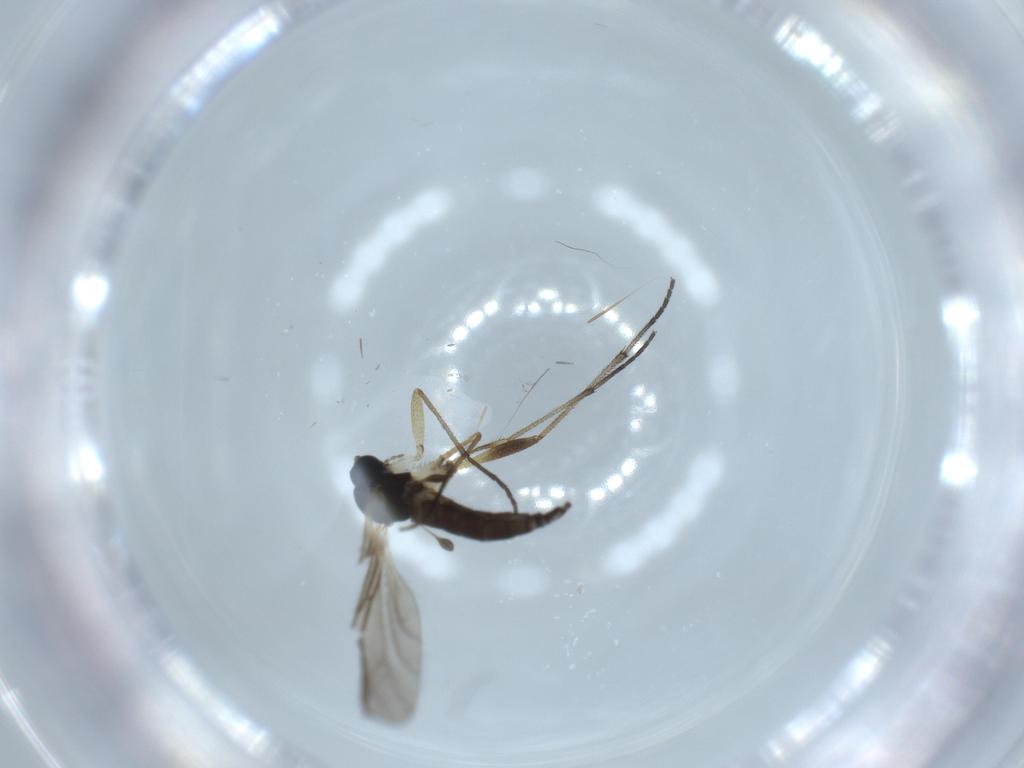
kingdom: Animalia
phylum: Arthropoda
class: Insecta
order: Diptera
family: Sciaridae
